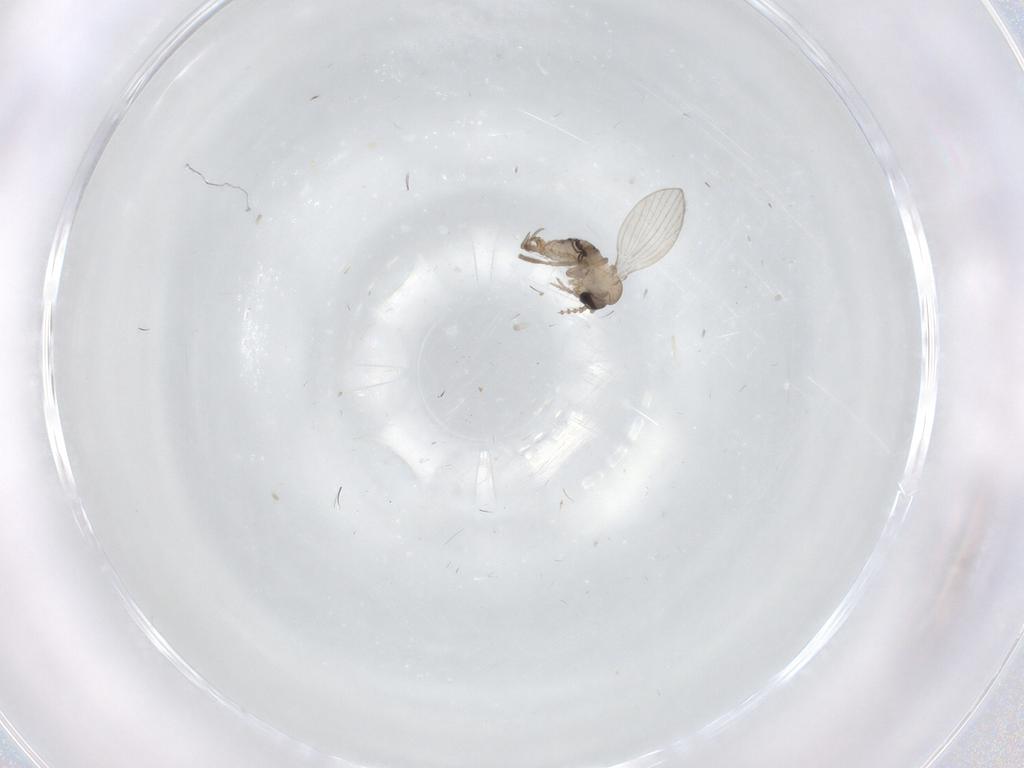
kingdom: Animalia
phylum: Arthropoda
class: Insecta
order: Diptera
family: Psychodidae
